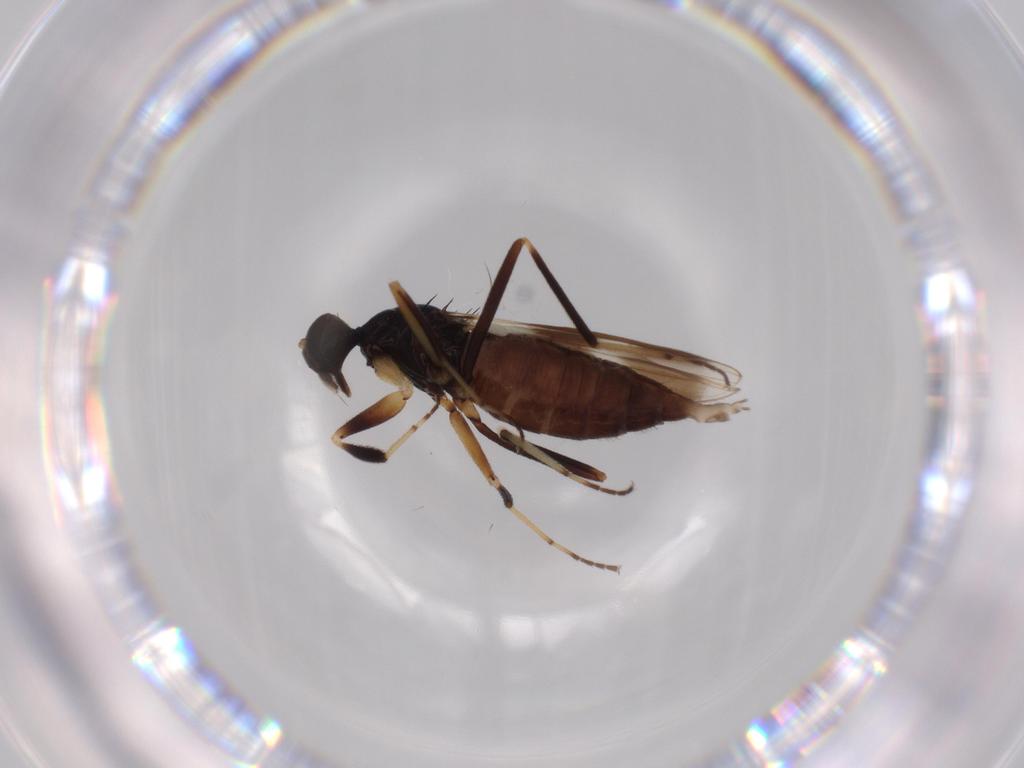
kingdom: Animalia
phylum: Arthropoda
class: Insecta
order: Diptera
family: Hybotidae
